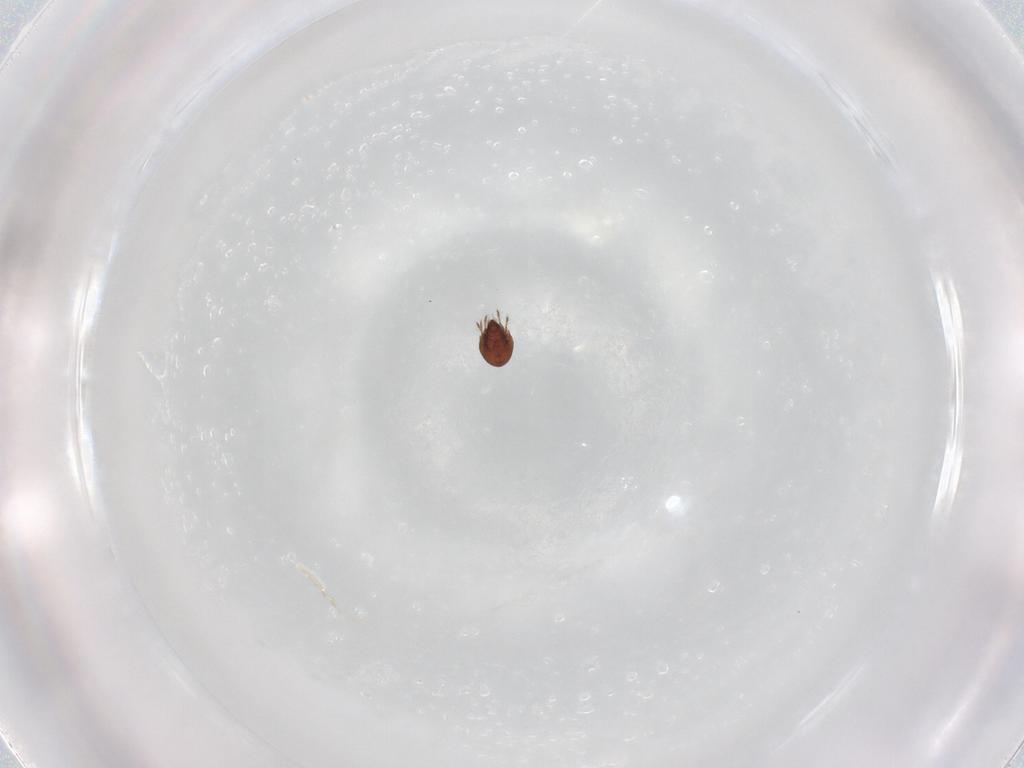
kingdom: Animalia
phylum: Arthropoda
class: Arachnida
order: Sarcoptiformes
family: Ceratozetidae
